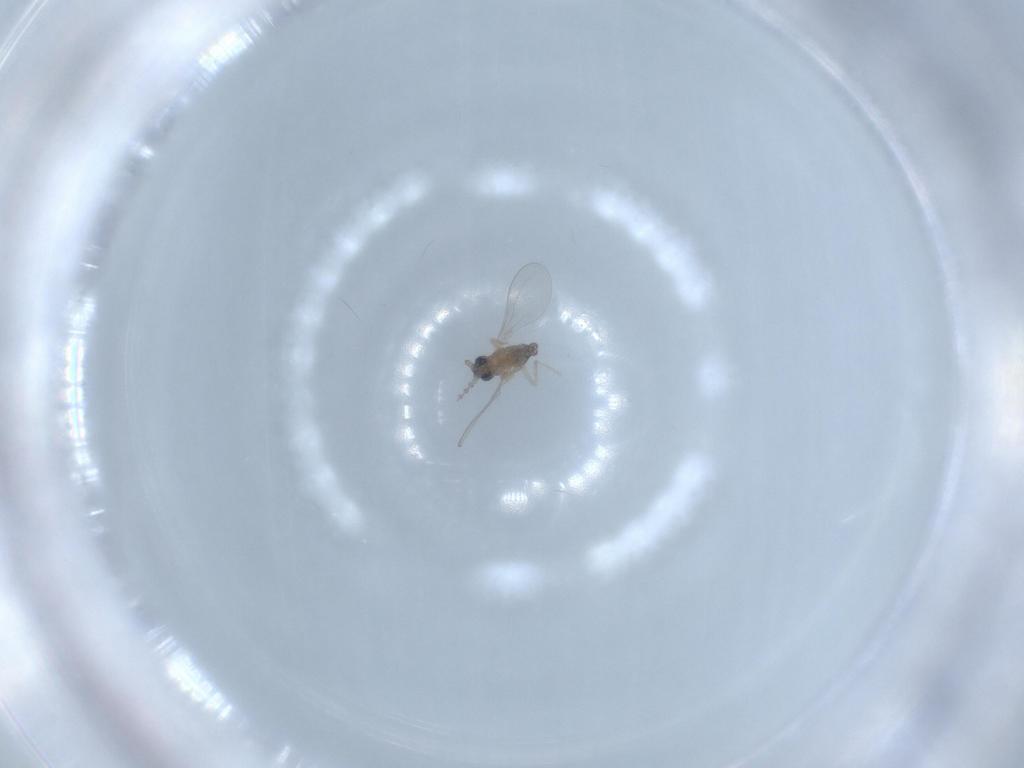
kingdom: Animalia
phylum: Arthropoda
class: Insecta
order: Diptera
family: Cecidomyiidae
